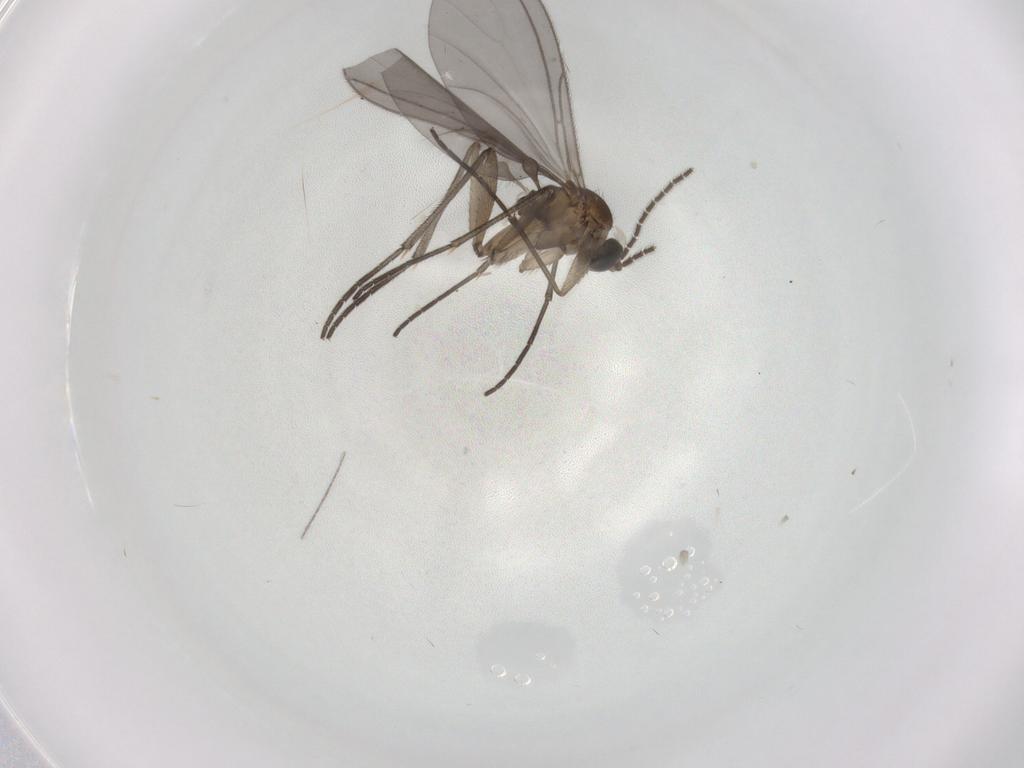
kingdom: Animalia
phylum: Arthropoda
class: Insecta
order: Diptera
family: Sciaridae
